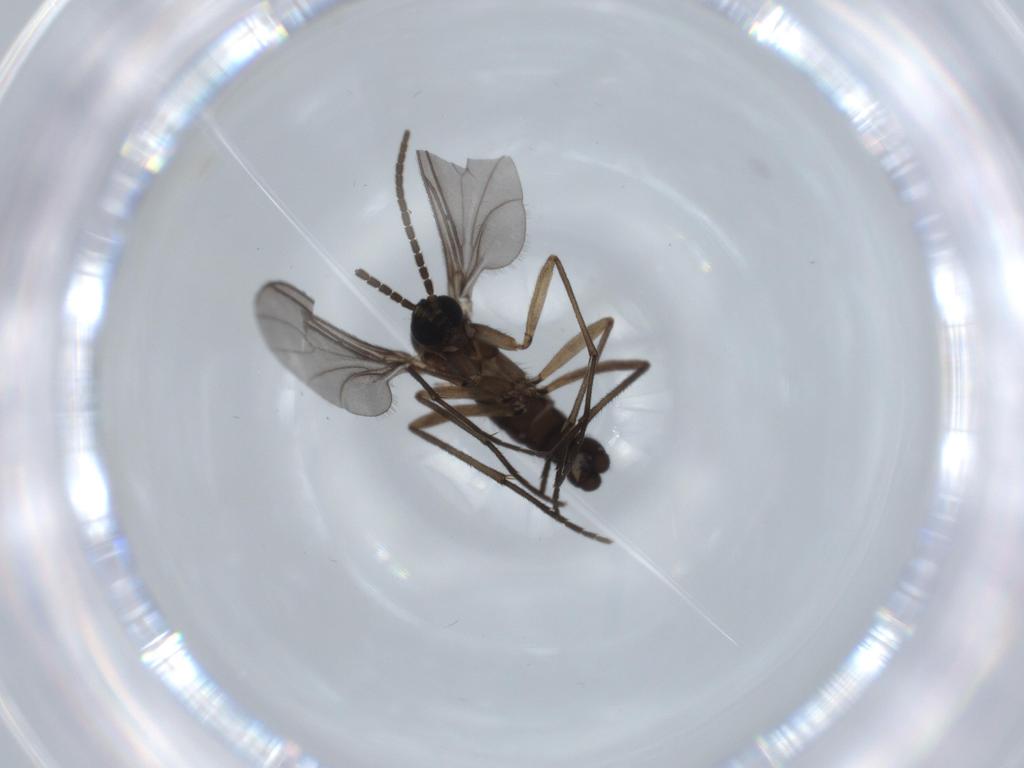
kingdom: Animalia
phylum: Arthropoda
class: Insecta
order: Diptera
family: Sciaridae
